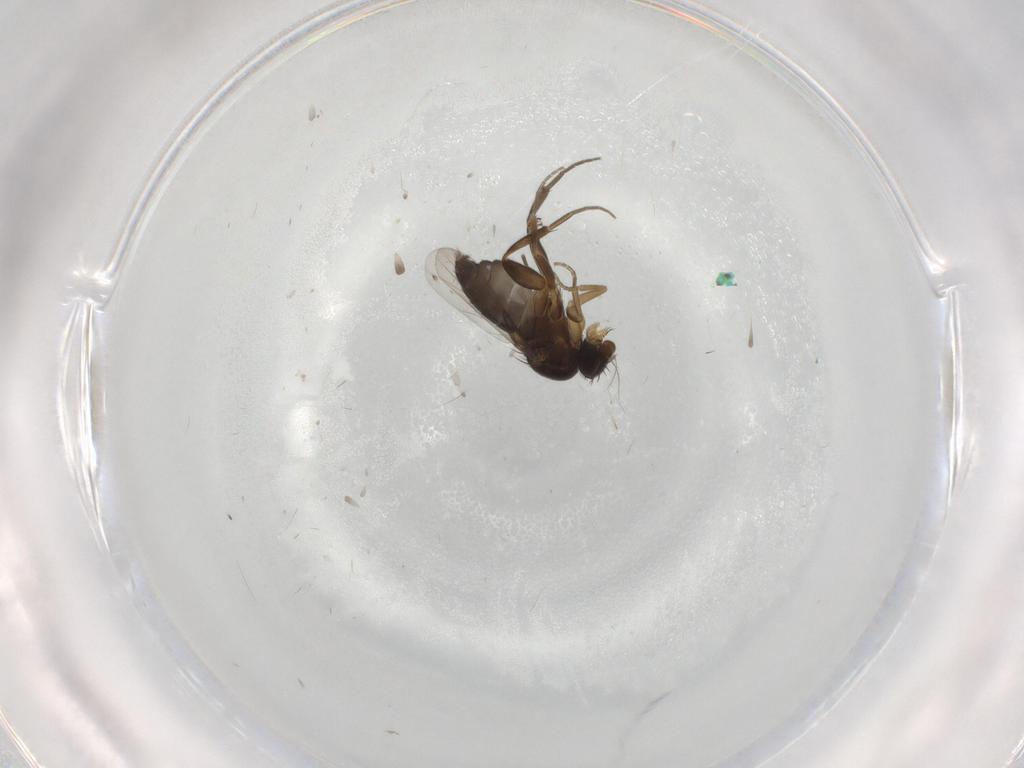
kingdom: Animalia
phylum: Arthropoda
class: Insecta
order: Diptera
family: Phoridae
